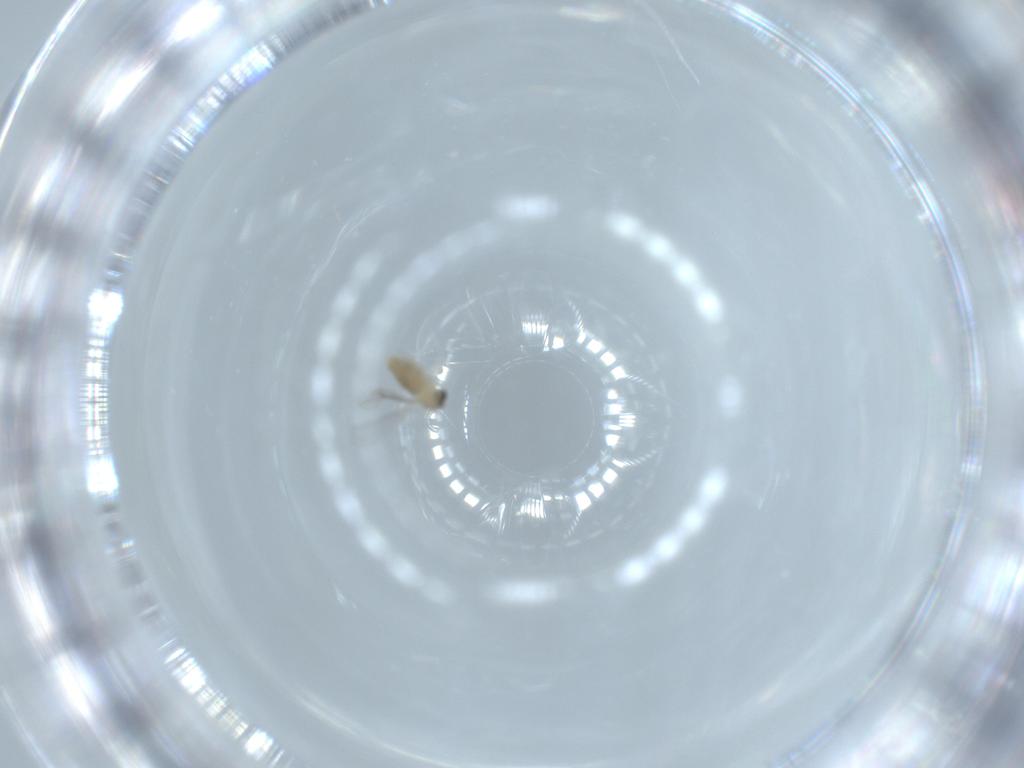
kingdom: Animalia
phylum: Arthropoda
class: Insecta
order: Diptera
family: Cecidomyiidae
